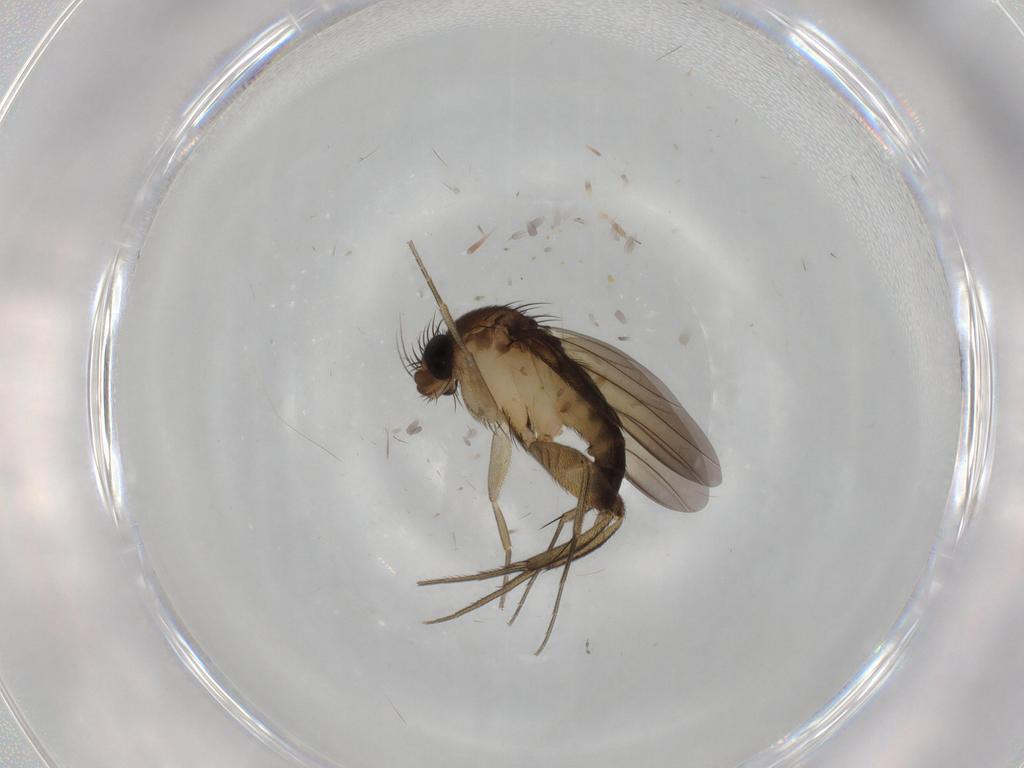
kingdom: Animalia
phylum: Arthropoda
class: Insecta
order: Diptera
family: Phoridae
